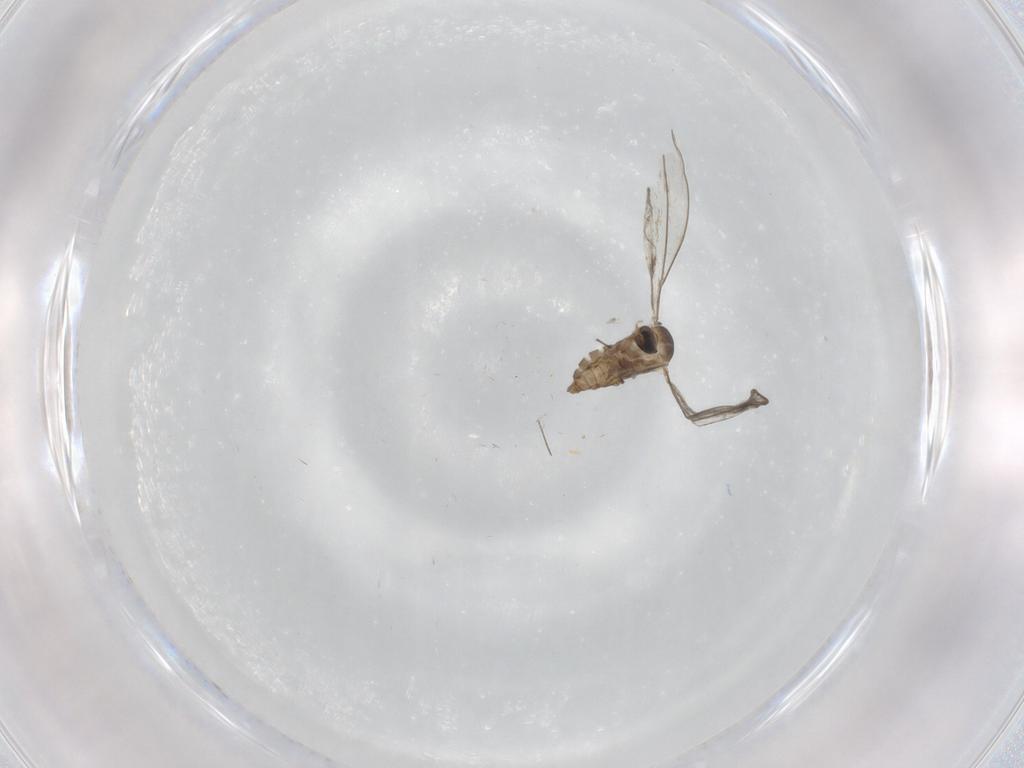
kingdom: Animalia
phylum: Arthropoda
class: Insecta
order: Diptera
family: Chironomidae
